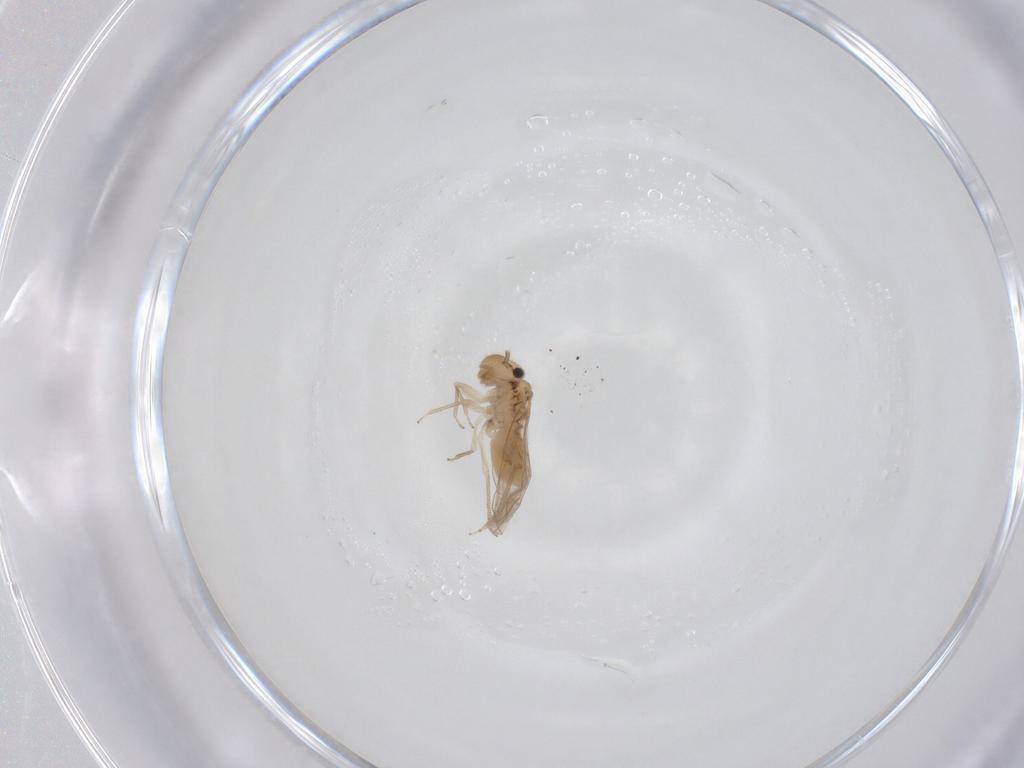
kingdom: Animalia
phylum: Arthropoda
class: Insecta
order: Psocodea
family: Ectopsocidae
